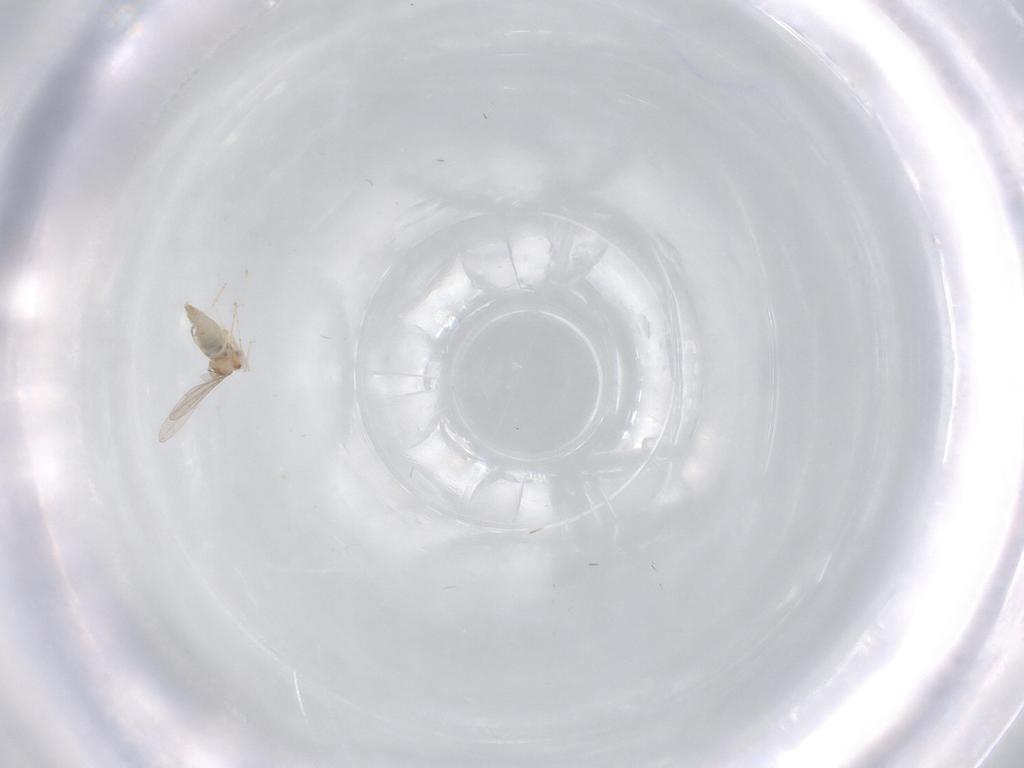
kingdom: Animalia
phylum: Arthropoda
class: Insecta
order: Diptera
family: Cecidomyiidae
